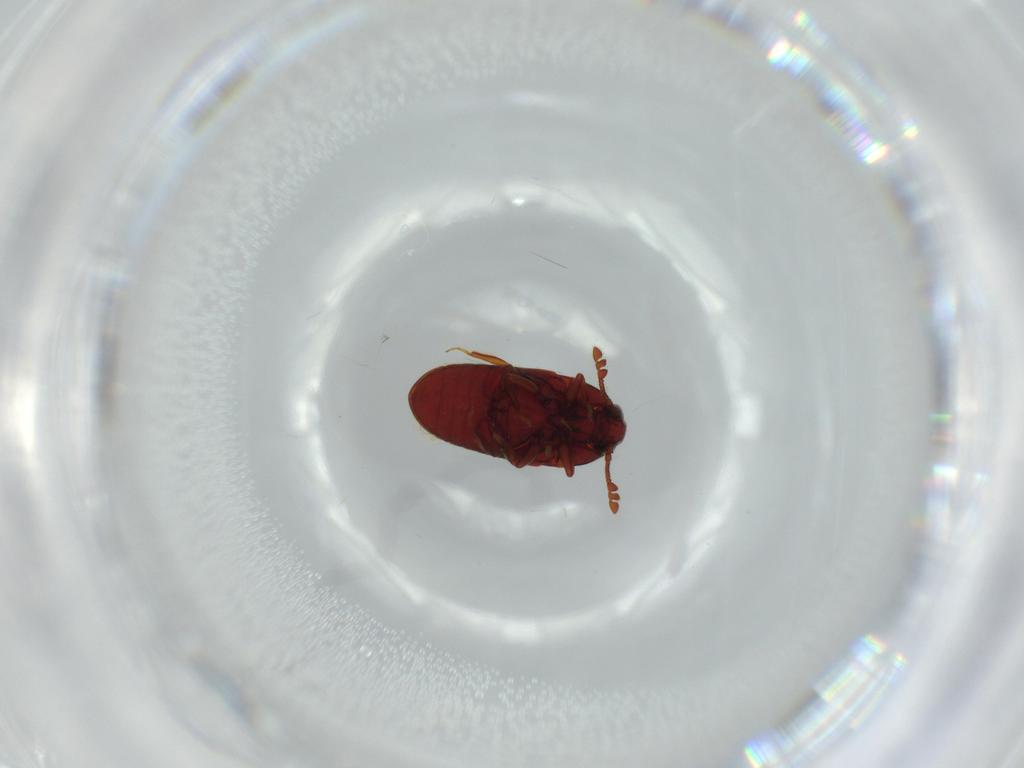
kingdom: Animalia
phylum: Arthropoda
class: Insecta
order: Coleoptera
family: Throscidae
